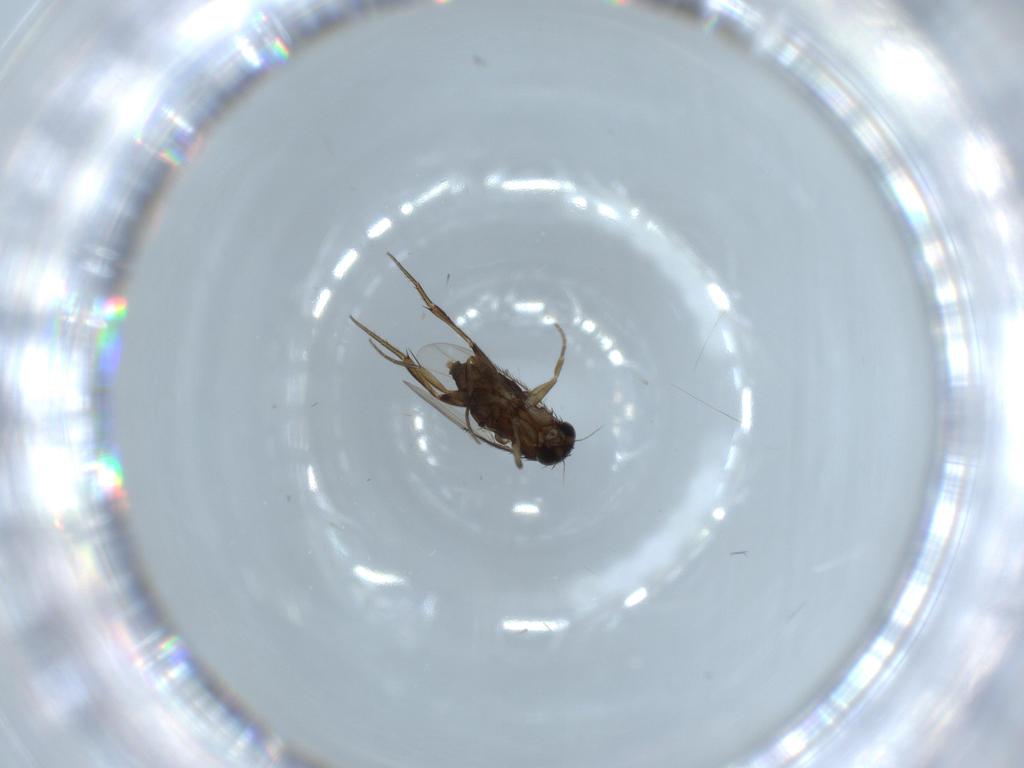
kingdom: Animalia
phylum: Arthropoda
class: Insecta
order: Diptera
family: Phoridae
